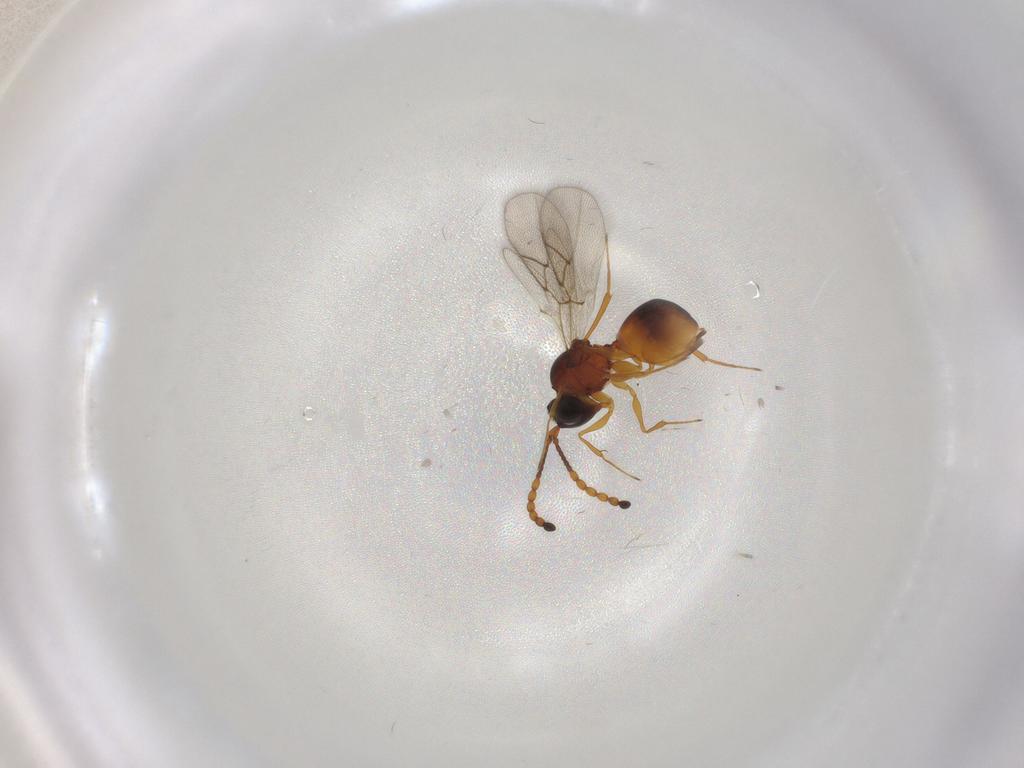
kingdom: Animalia
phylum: Arthropoda
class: Insecta
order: Hymenoptera
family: Figitidae
